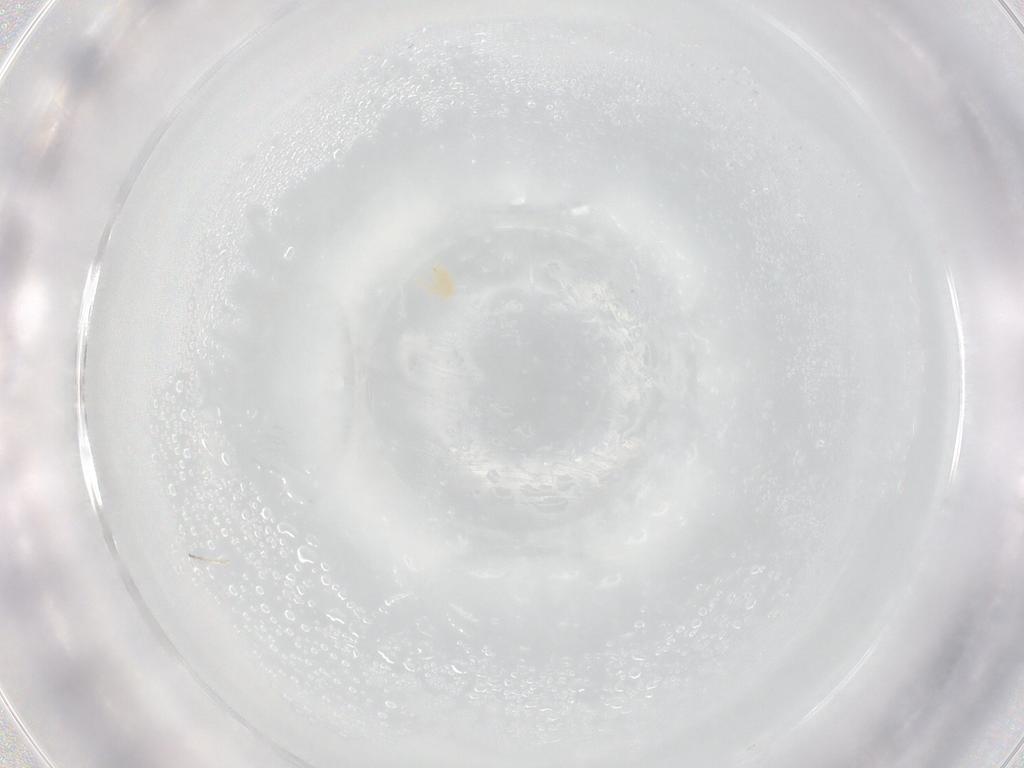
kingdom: Animalia
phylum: Arthropoda
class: Arachnida
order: Trombidiformes
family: Tetranychidae
